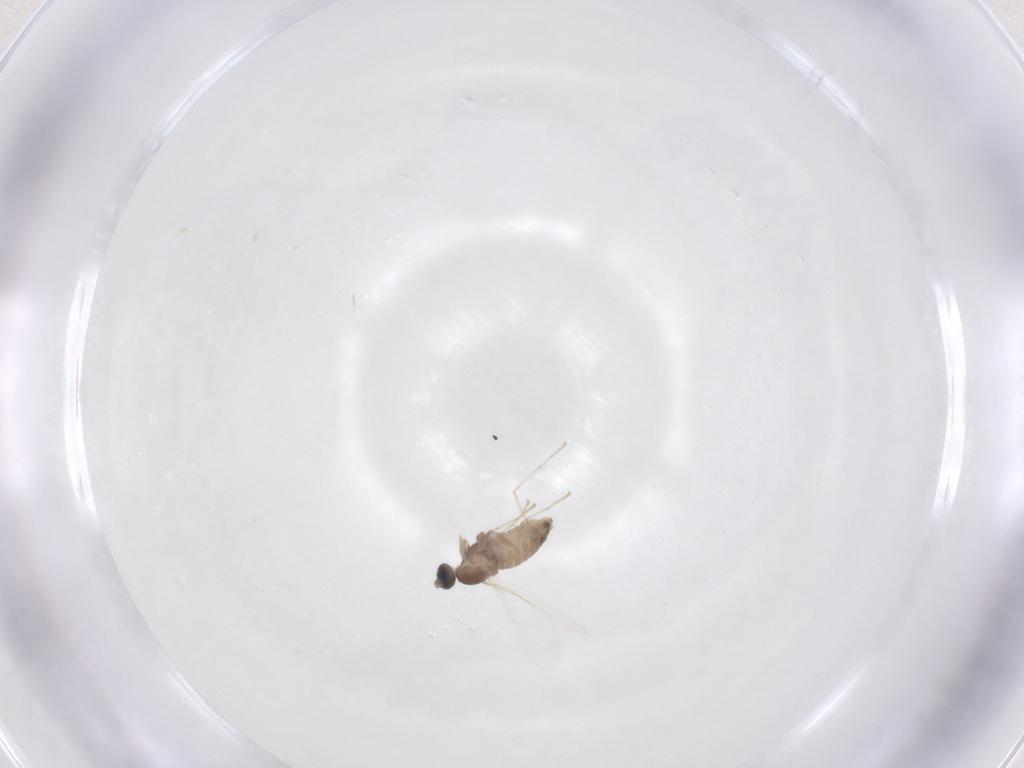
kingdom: Animalia
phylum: Arthropoda
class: Insecta
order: Diptera
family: Cecidomyiidae
